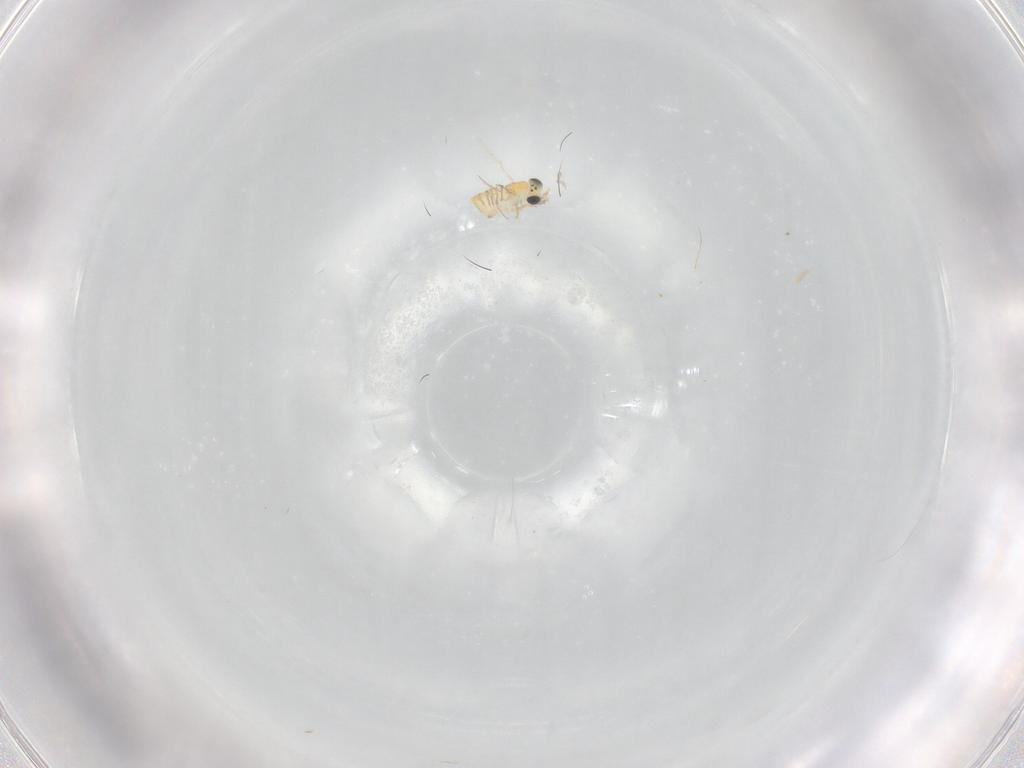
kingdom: Animalia
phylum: Arthropoda
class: Insecta
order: Hymenoptera
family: Trichogrammatidae
